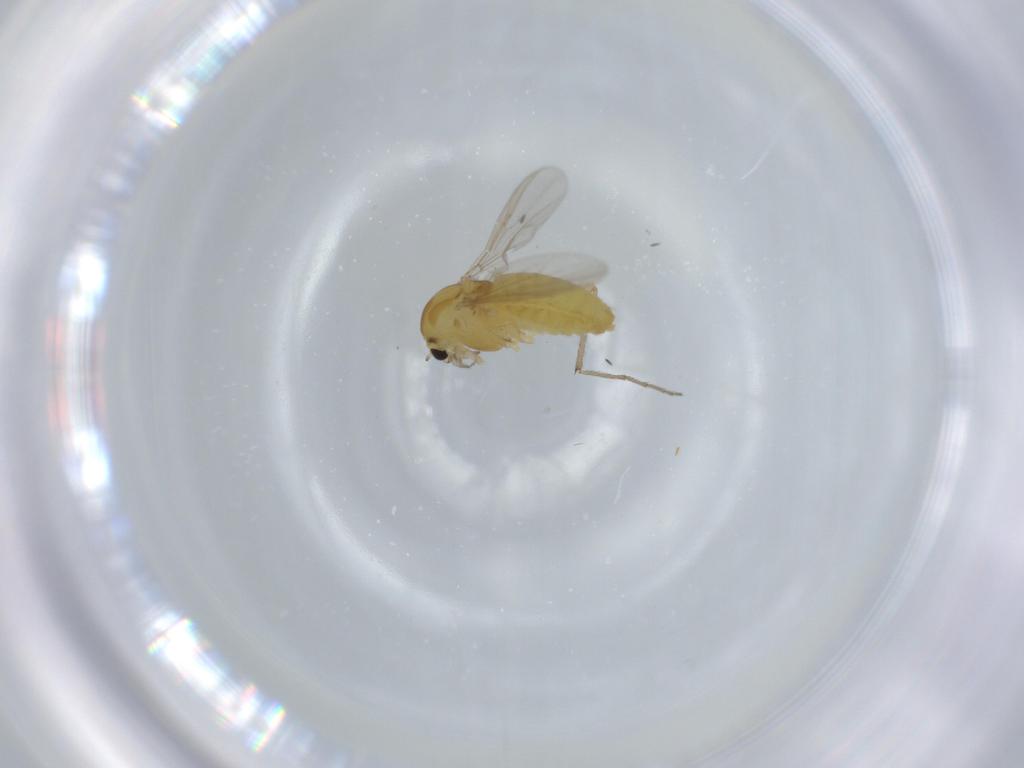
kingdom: Animalia
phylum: Arthropoda
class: Insecta
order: Diptera
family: Chironomidae
